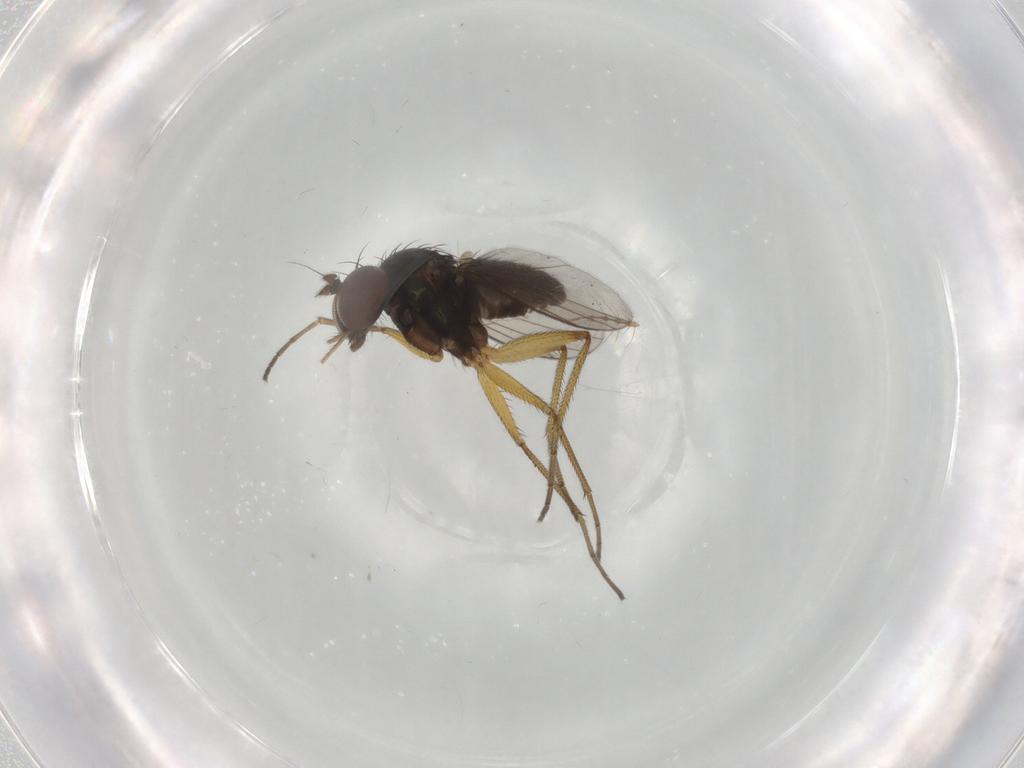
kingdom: Animalia
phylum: Arthropoda
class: Insecta
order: Diptera
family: Dolichopodidae
